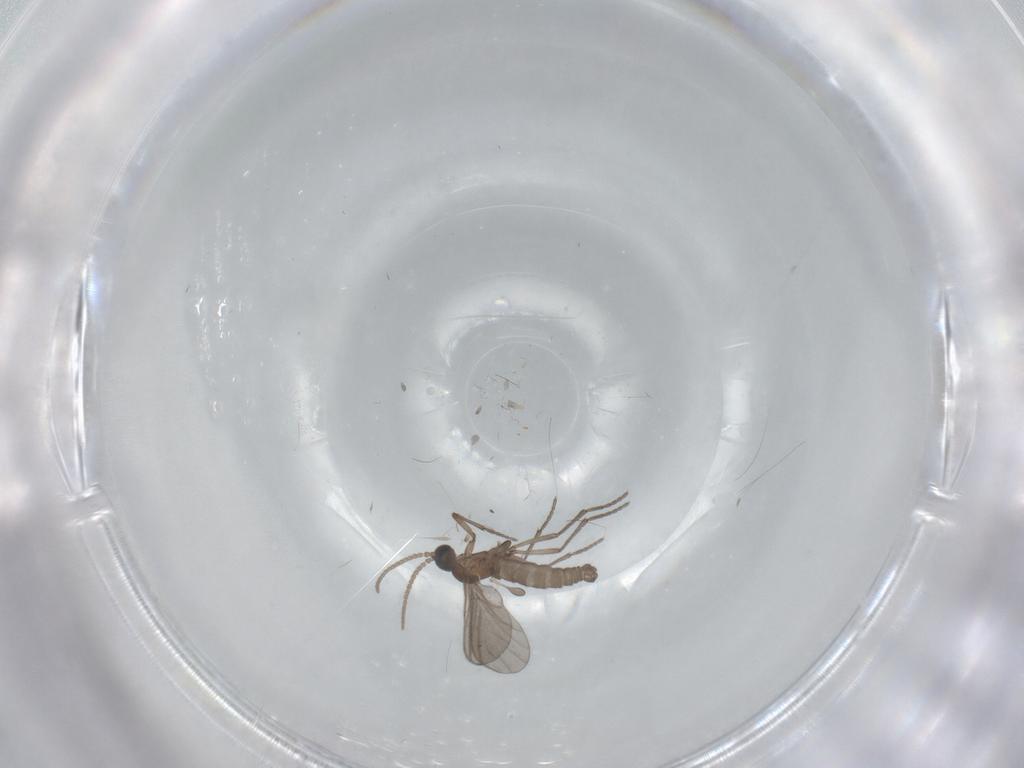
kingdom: Animalia
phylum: Arthropoda
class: Insecta
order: Diptera
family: Sciaridae
